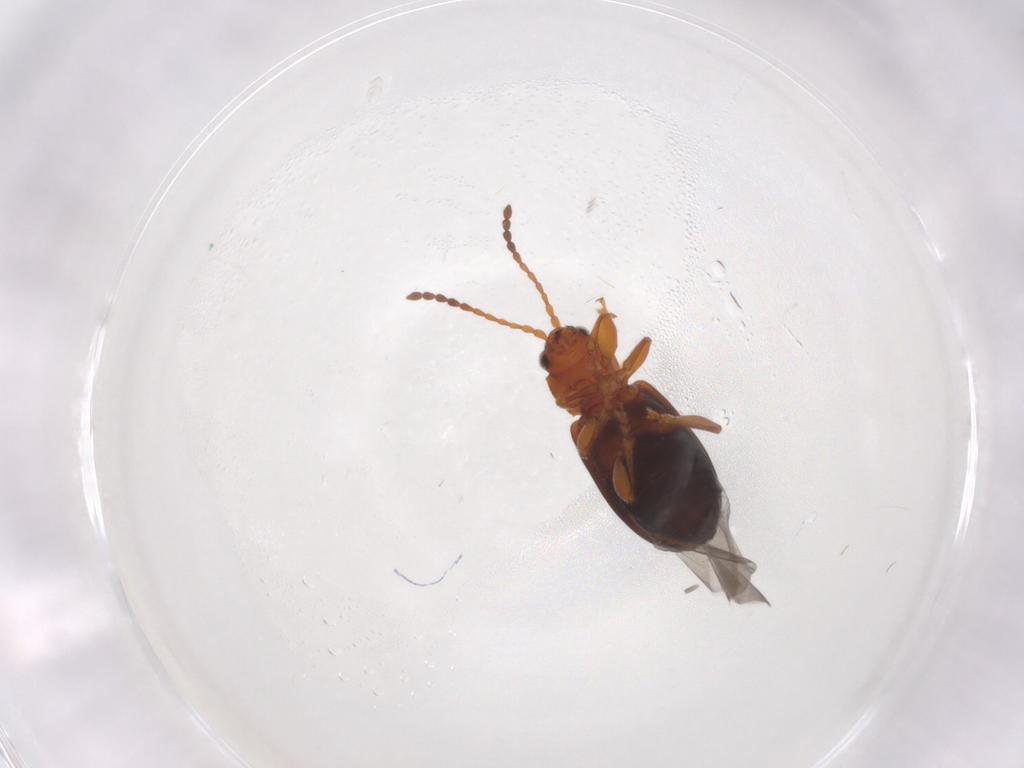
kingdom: Animalia
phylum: Arthropoda
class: Insecta
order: Coleoptera
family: Chrysomelidae
